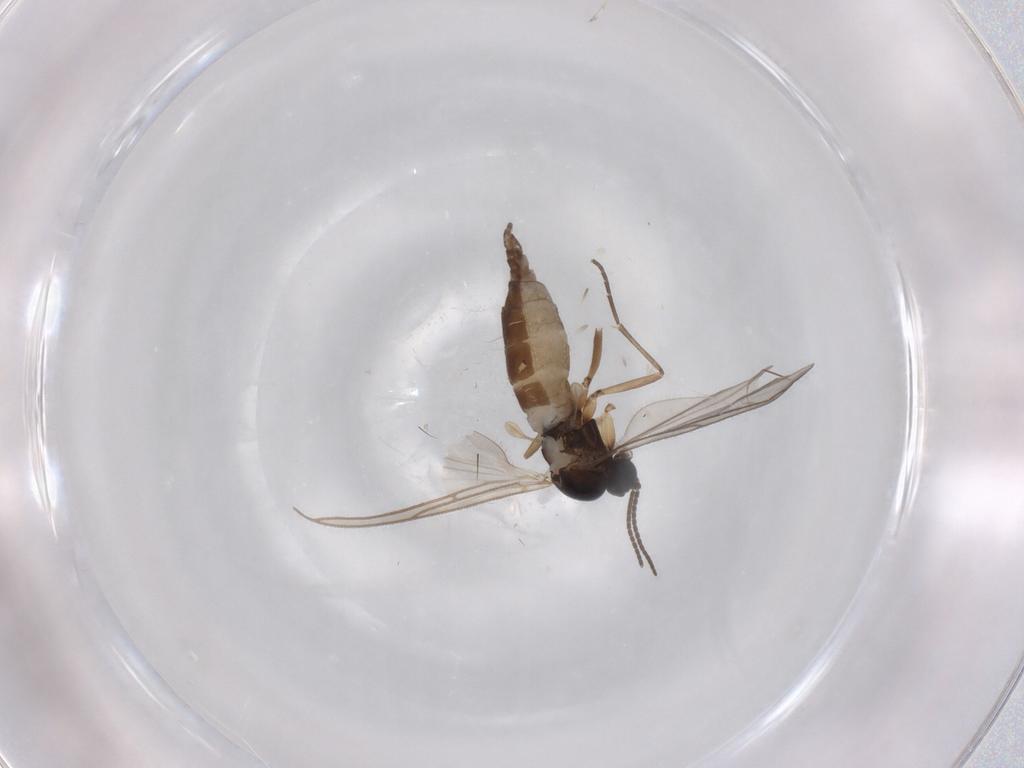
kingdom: Animalia
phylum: Arthropoda
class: Insecta
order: Diptera
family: Sciaridae
